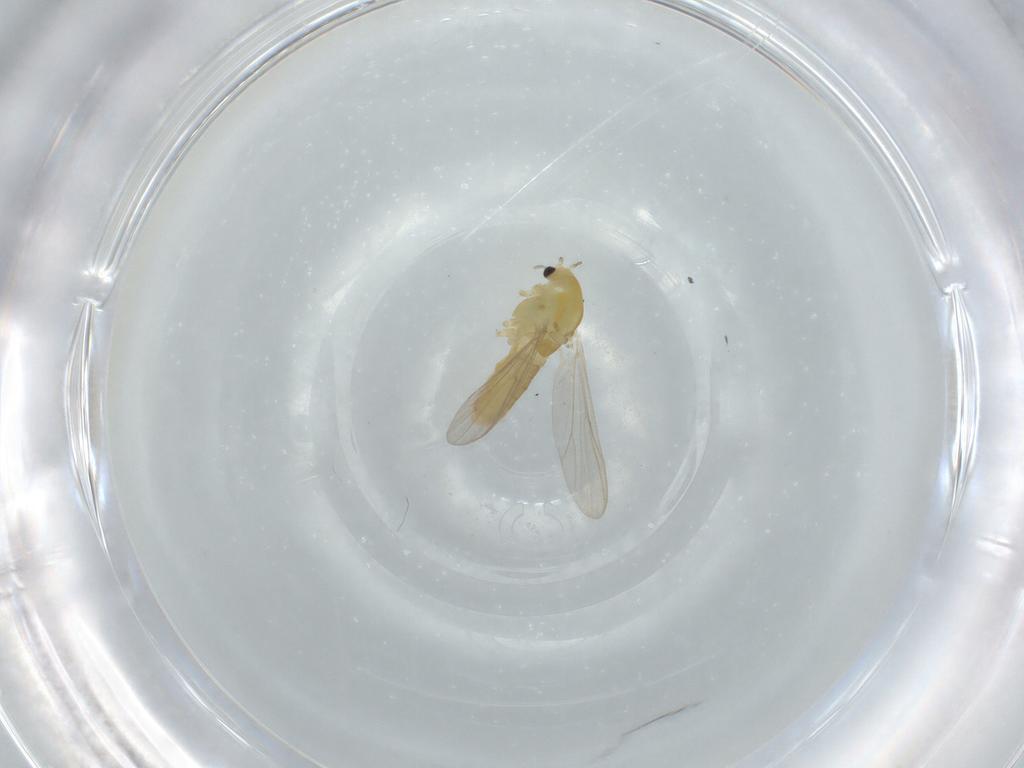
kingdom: Animalia
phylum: Arthropoda
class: Insecta
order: Diptera
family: Chironomidae
